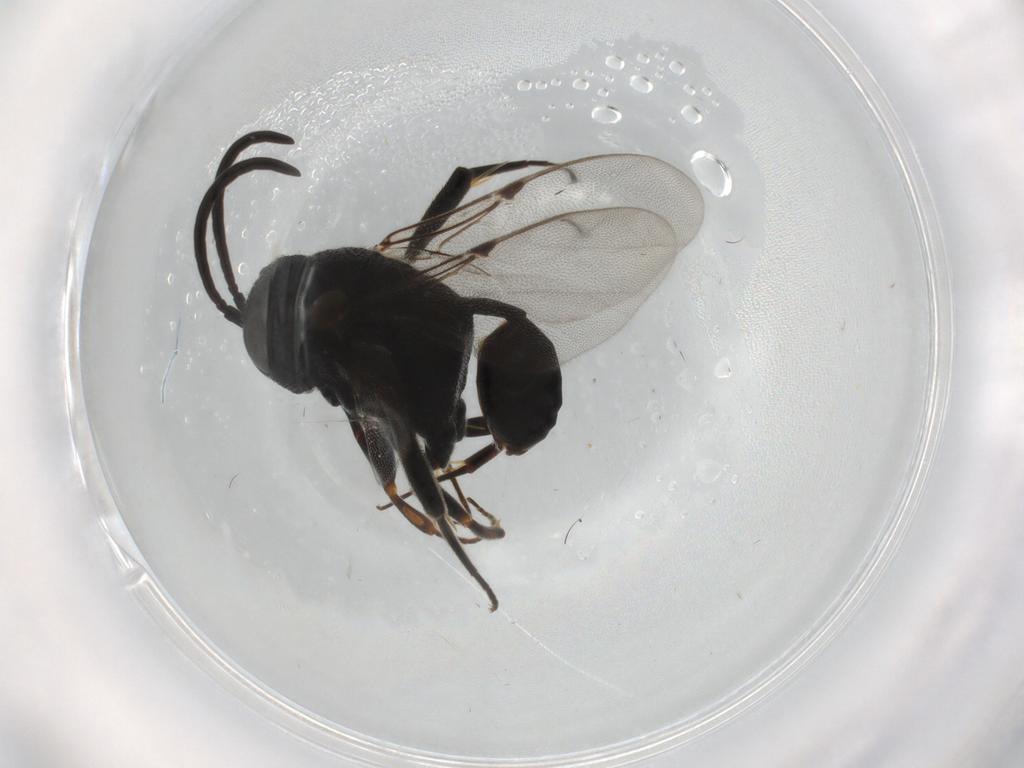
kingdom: Animalia
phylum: Arthropoda
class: Insecta
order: Hymenoptera
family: Evaniidae
